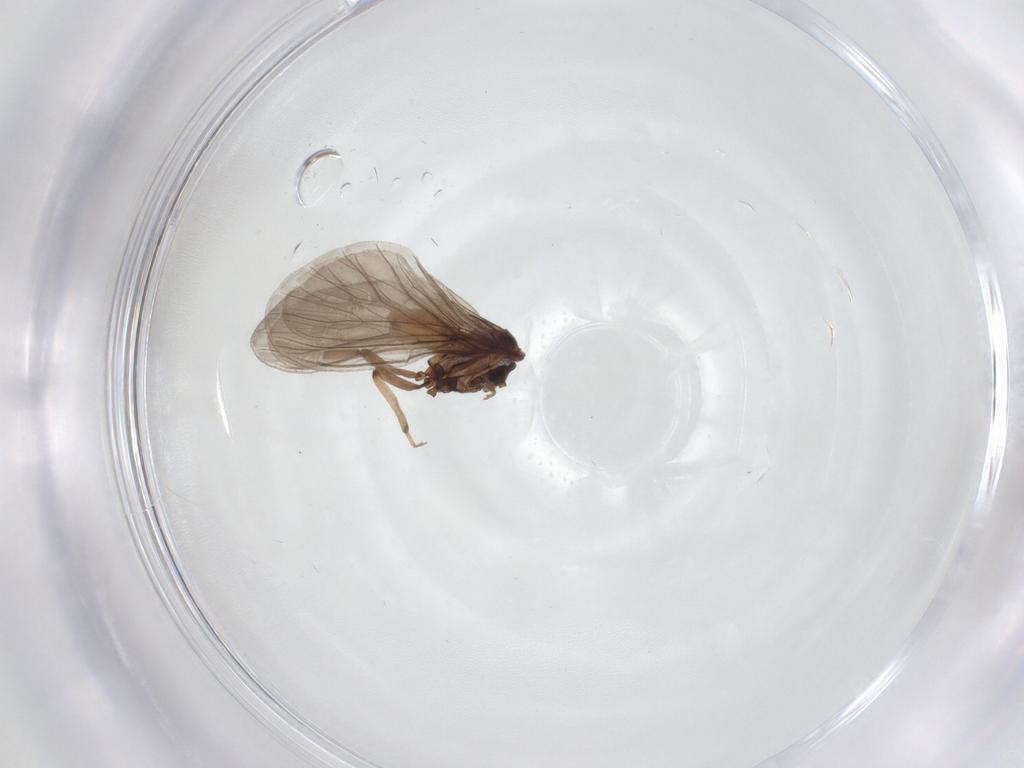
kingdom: Animalia
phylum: Arthropoda
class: Insecta
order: Neuroptera
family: Coniopterygidae
